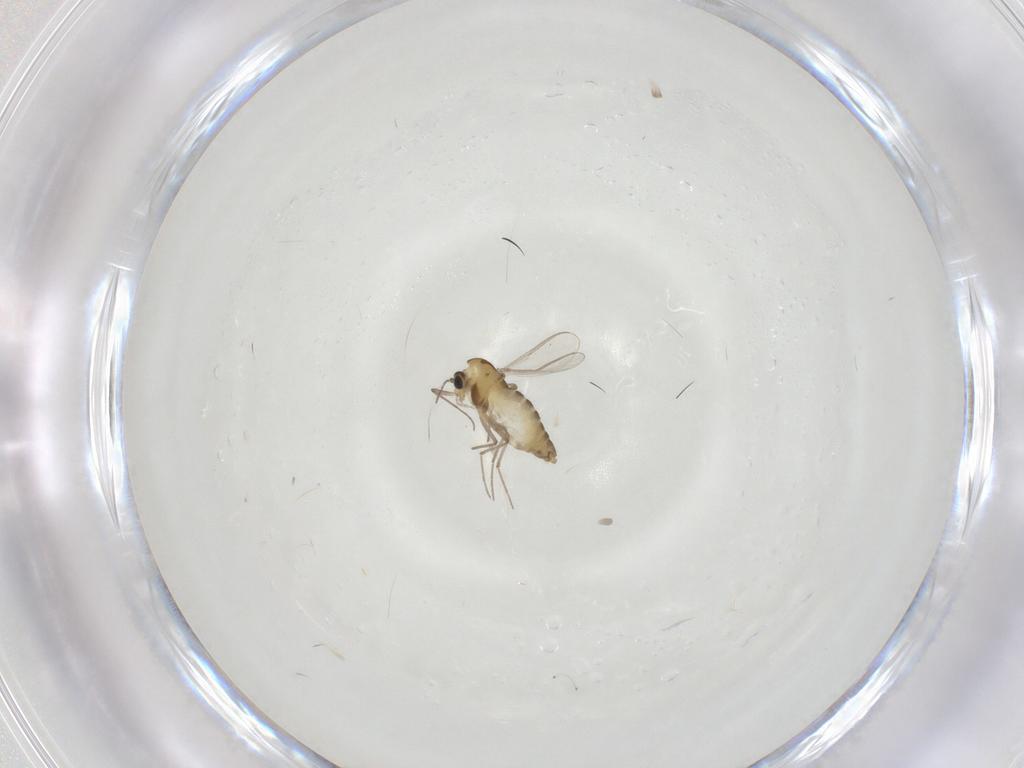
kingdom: Animalia
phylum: Arthropoda
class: Insecta
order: Diptera
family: Chironomidae
